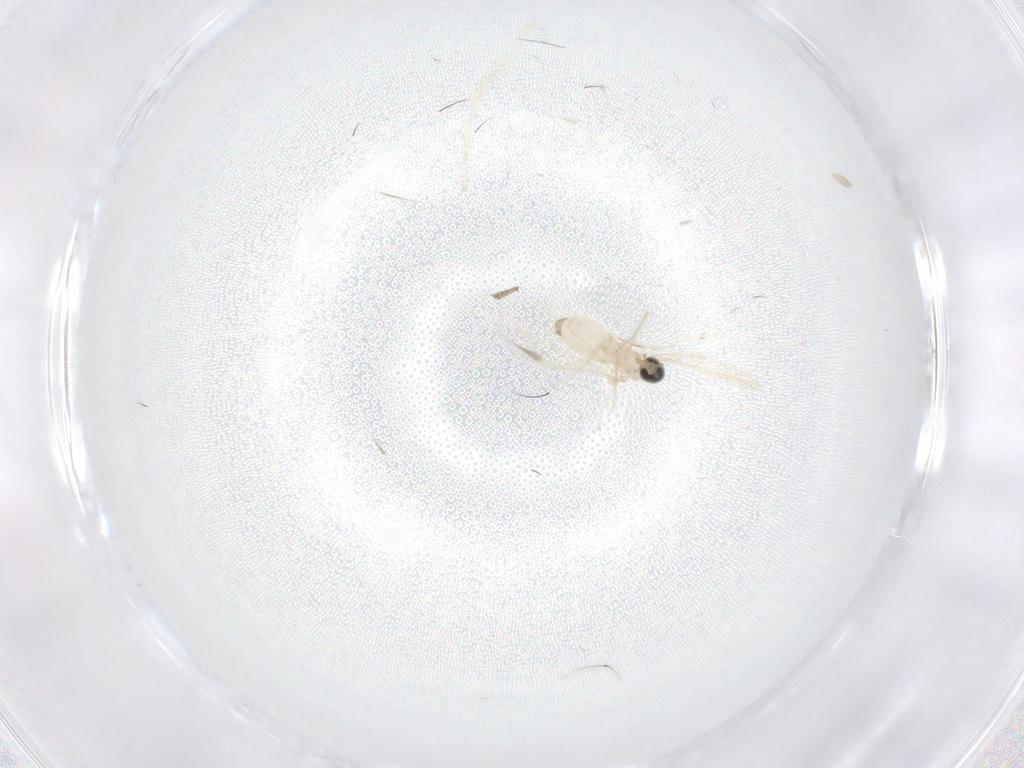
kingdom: Animalia
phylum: Arthropoda
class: Insecta
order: Diptera
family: Cecidomyiidae
